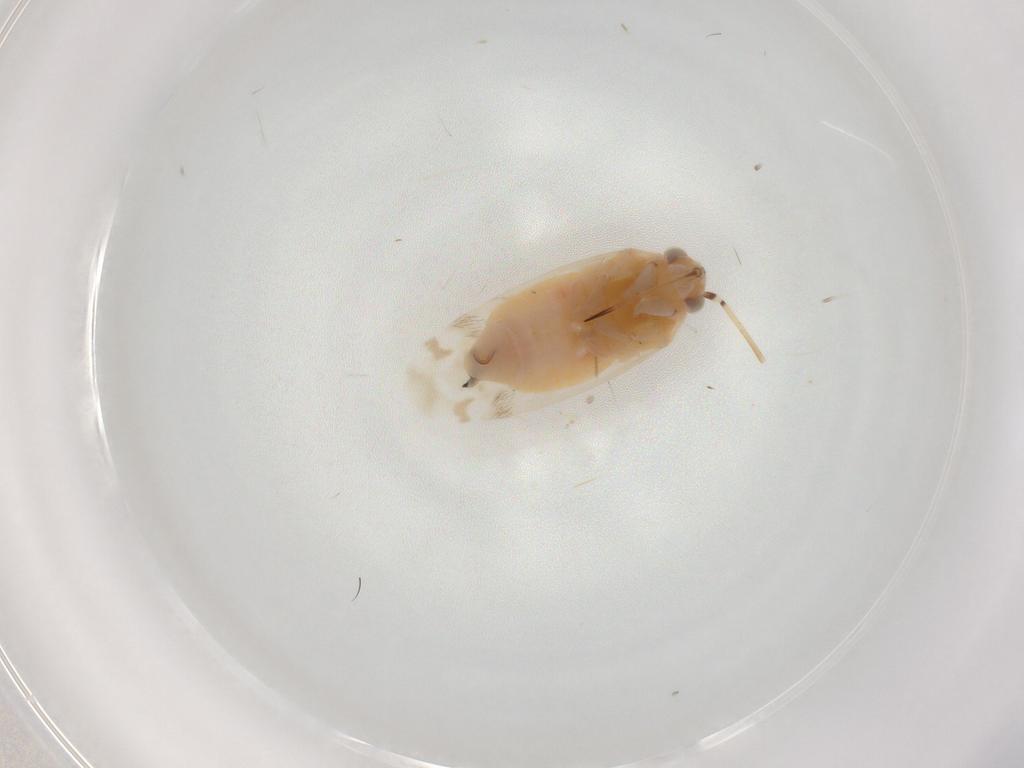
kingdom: Animalia
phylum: Arthropoda
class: Insecta
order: Hemiptera
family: Miridae
